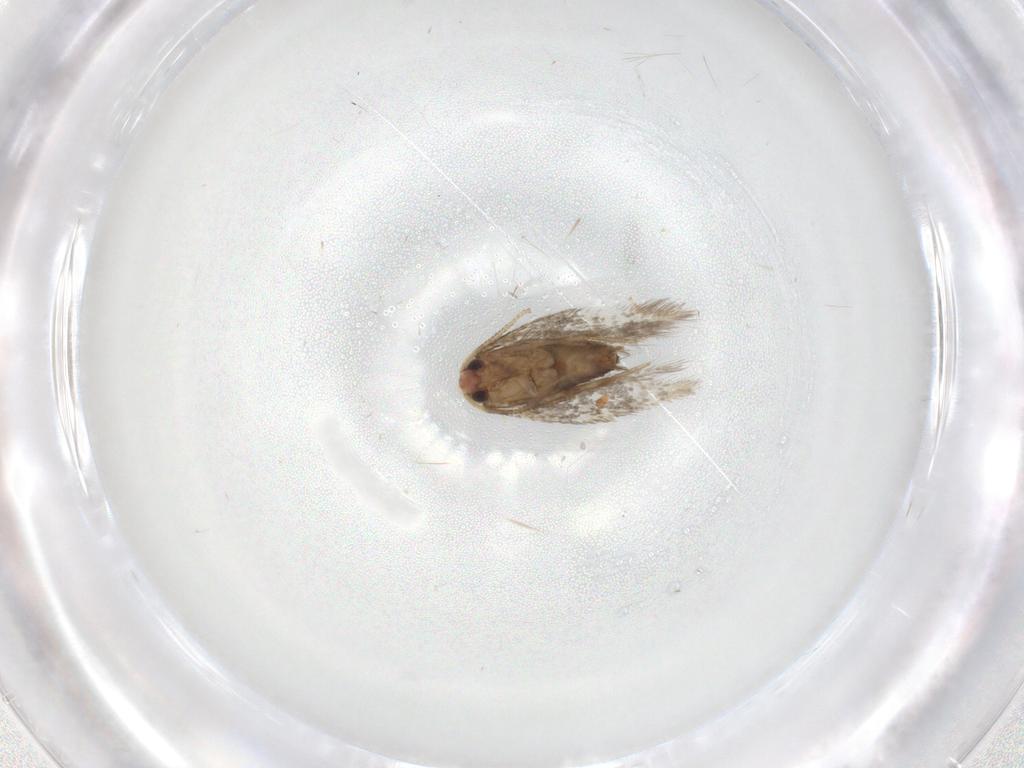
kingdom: Animalia
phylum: Arthropoda
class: Insecta
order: Lepidoptera
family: Nepticulidae
